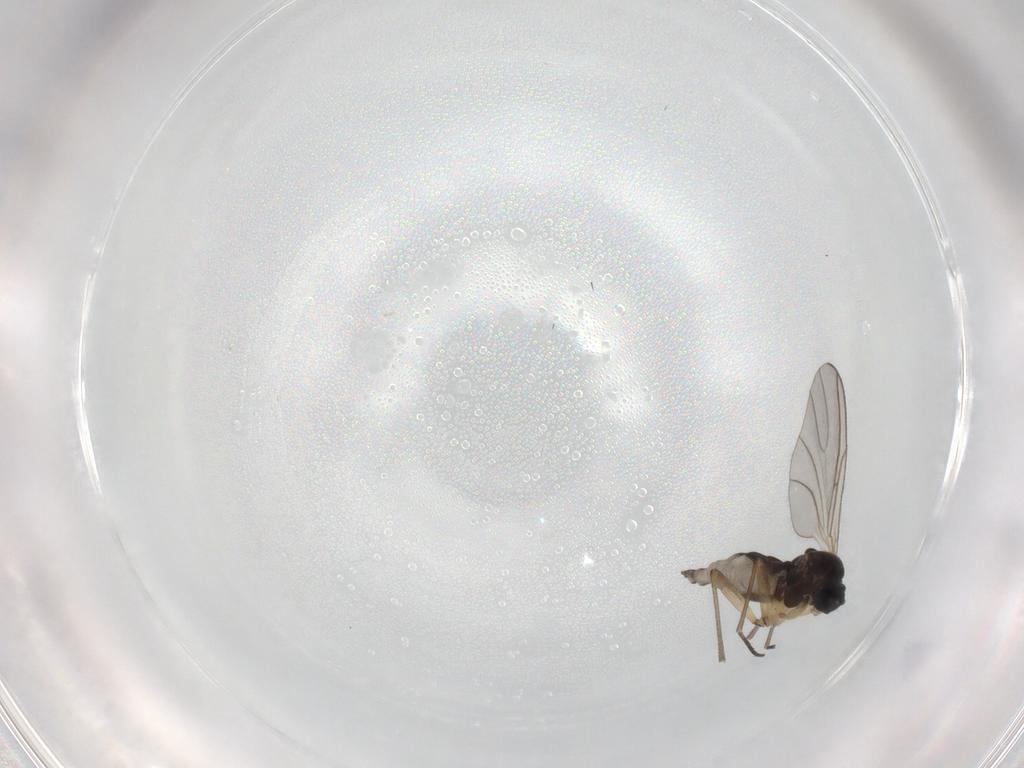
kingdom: Animalia
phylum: Arthropoda
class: Insecta
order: Diptera
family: Sciaridae
